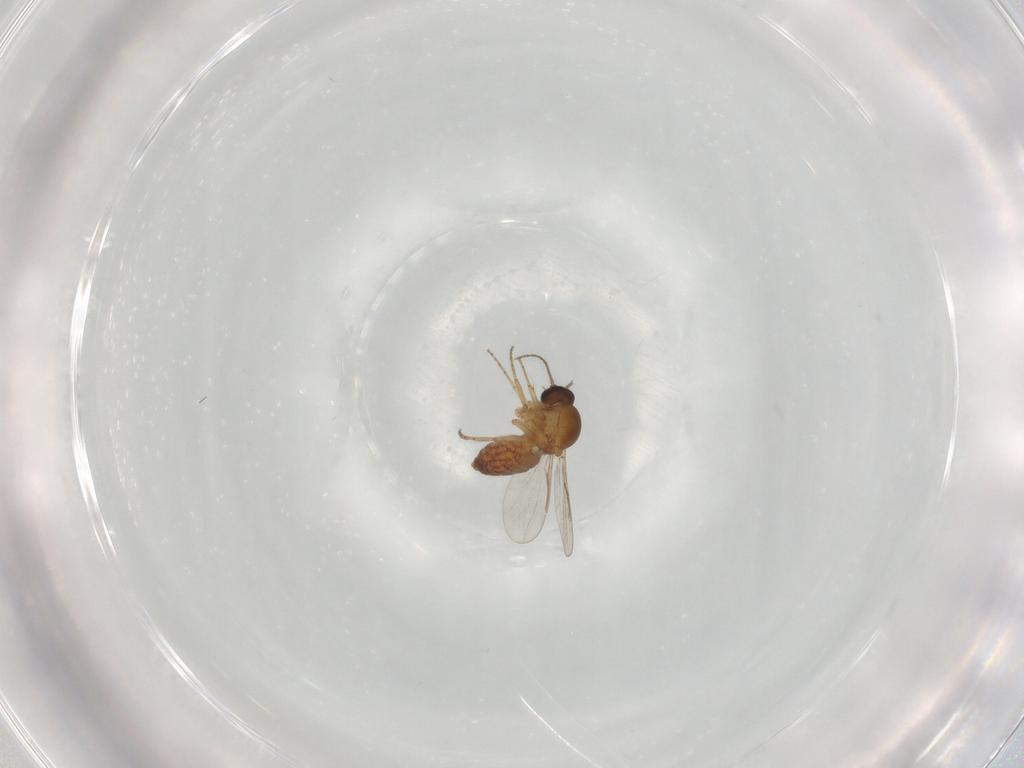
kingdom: Animalia
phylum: Arthropoda
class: Insecta
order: Diptera
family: Ceratopogonidae
